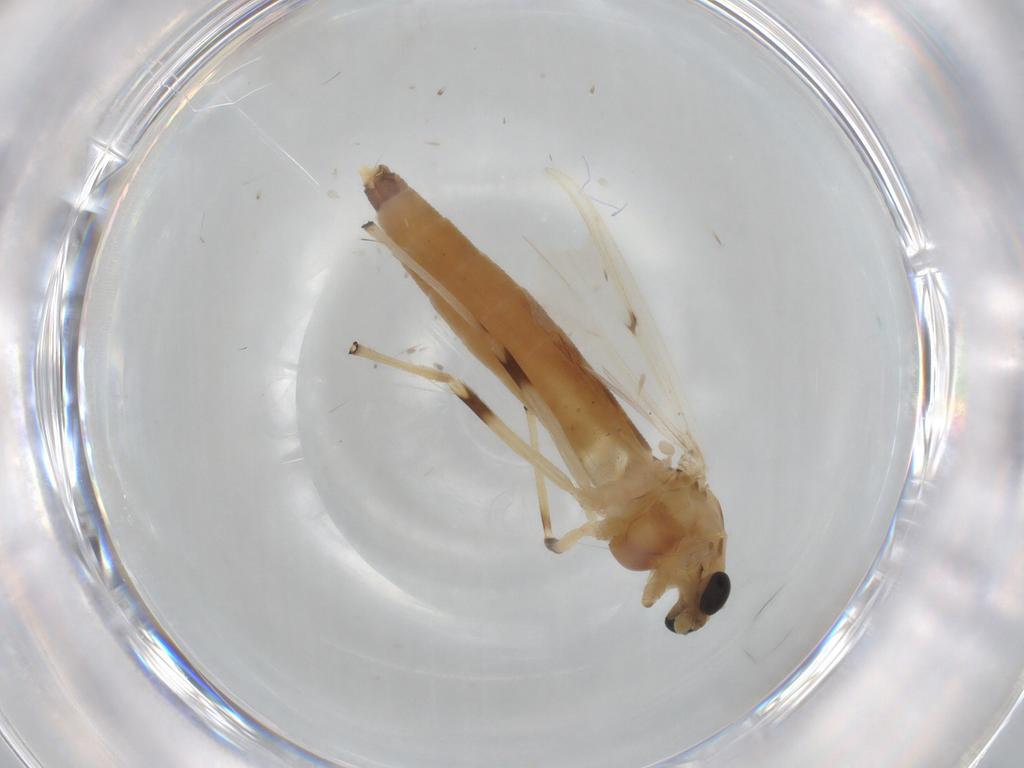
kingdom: Animalia
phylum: Arthropoda
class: Insecta
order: Diptera
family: Chironomidae
